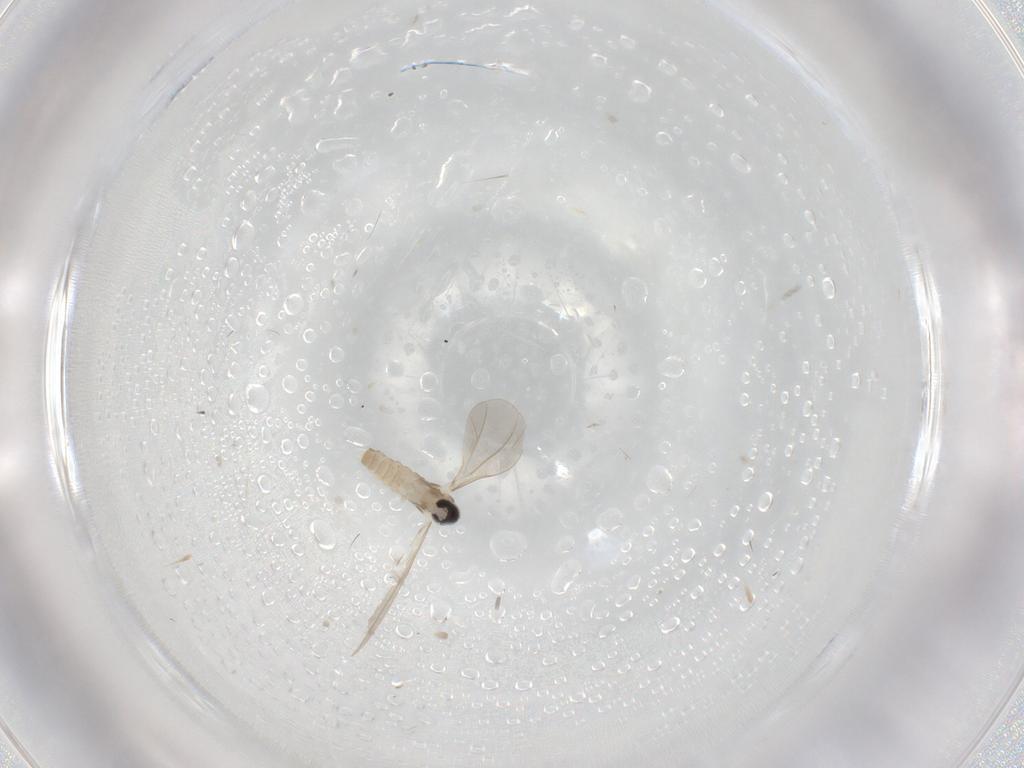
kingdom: Animalia
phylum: Arthropoda
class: Insecta
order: Diptera
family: Cecidomyiidae
